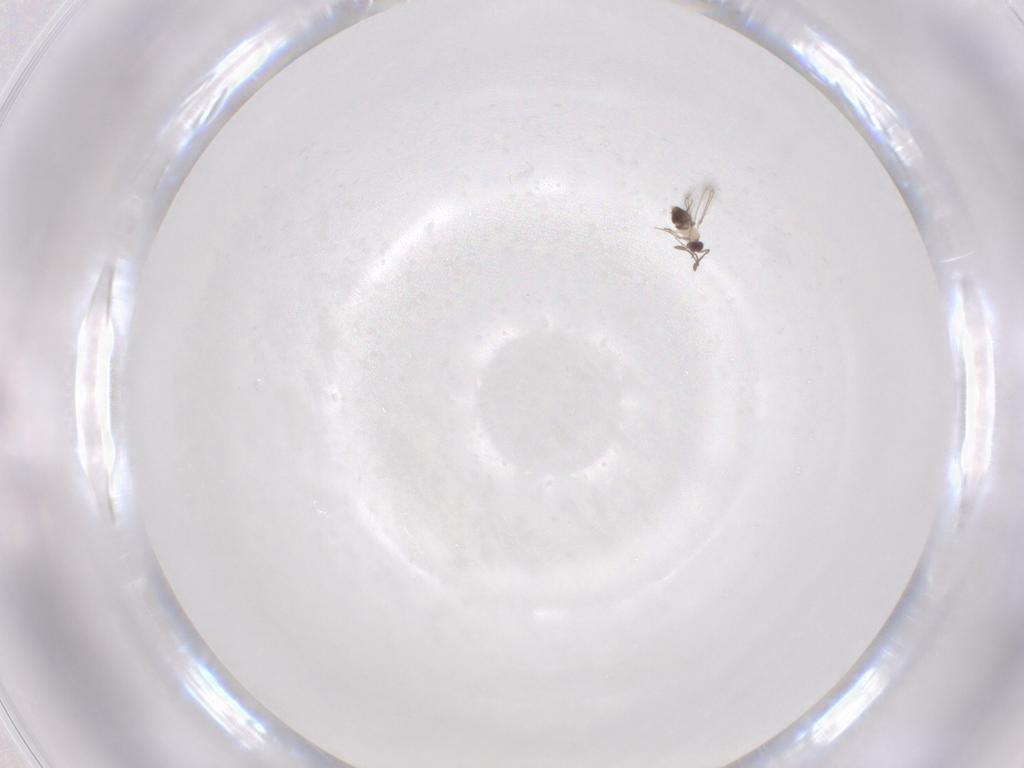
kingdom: Animalia
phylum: Arthropoda
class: Insecta
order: Hymenoptera
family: Mymaridae
